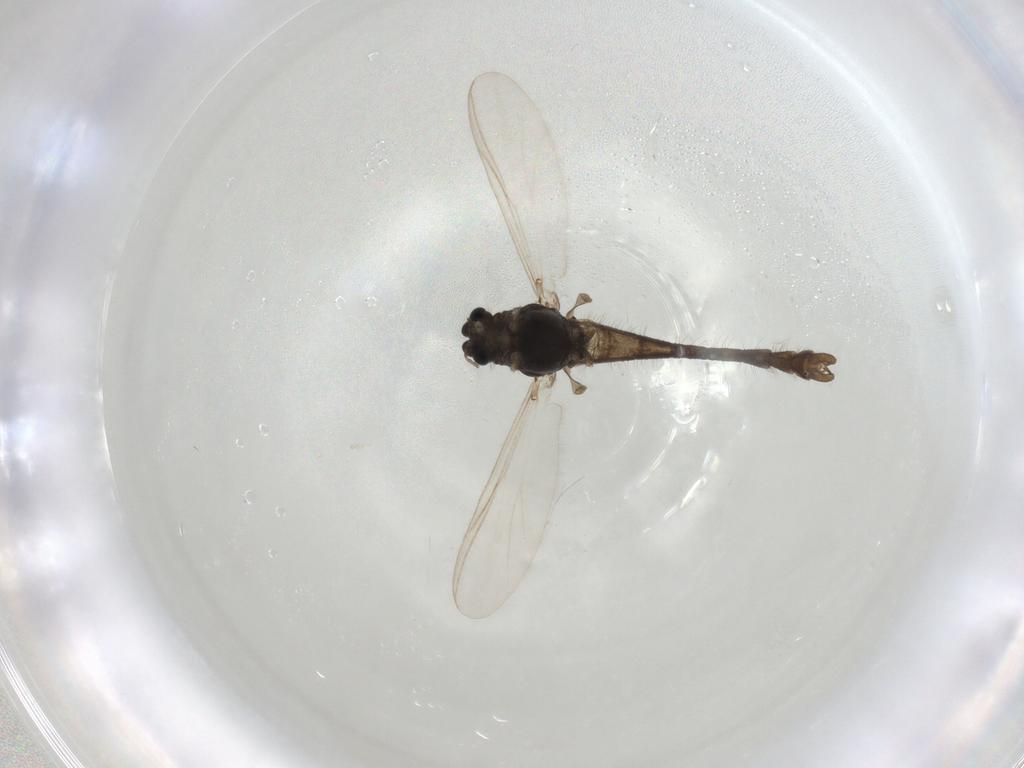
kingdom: Animalia
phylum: Arthropoda
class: Insecta
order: Diptera
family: Chironomidae
